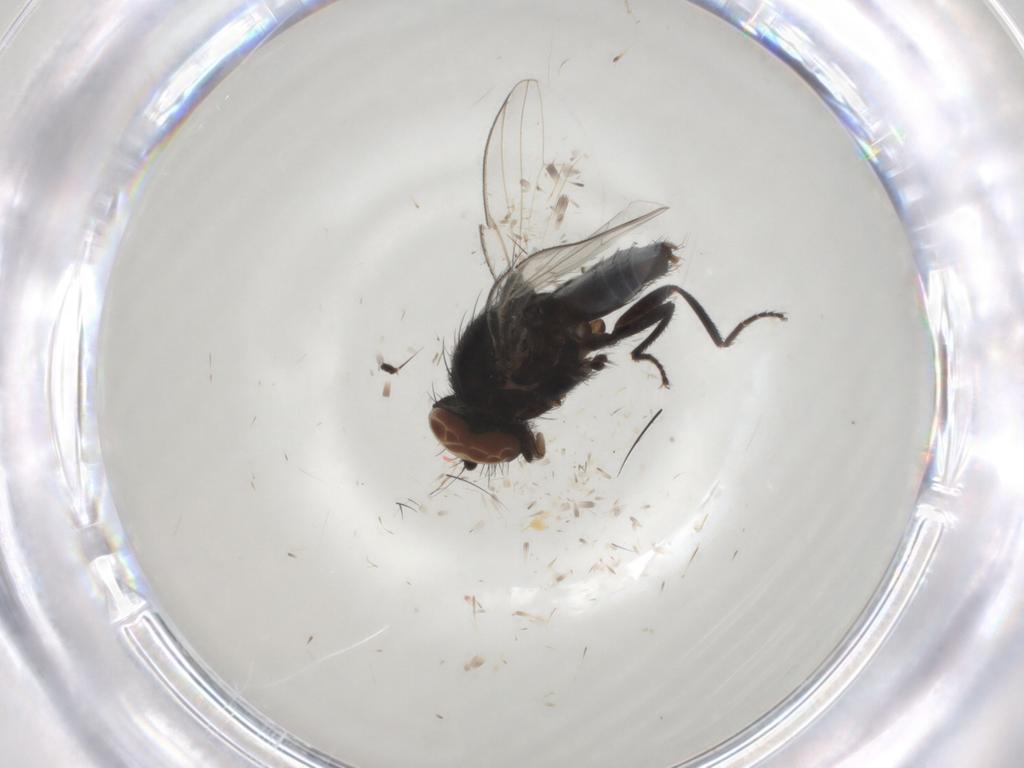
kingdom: Animalia
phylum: Arthropoda
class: Insecta
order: Diptera
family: Milichiidae
